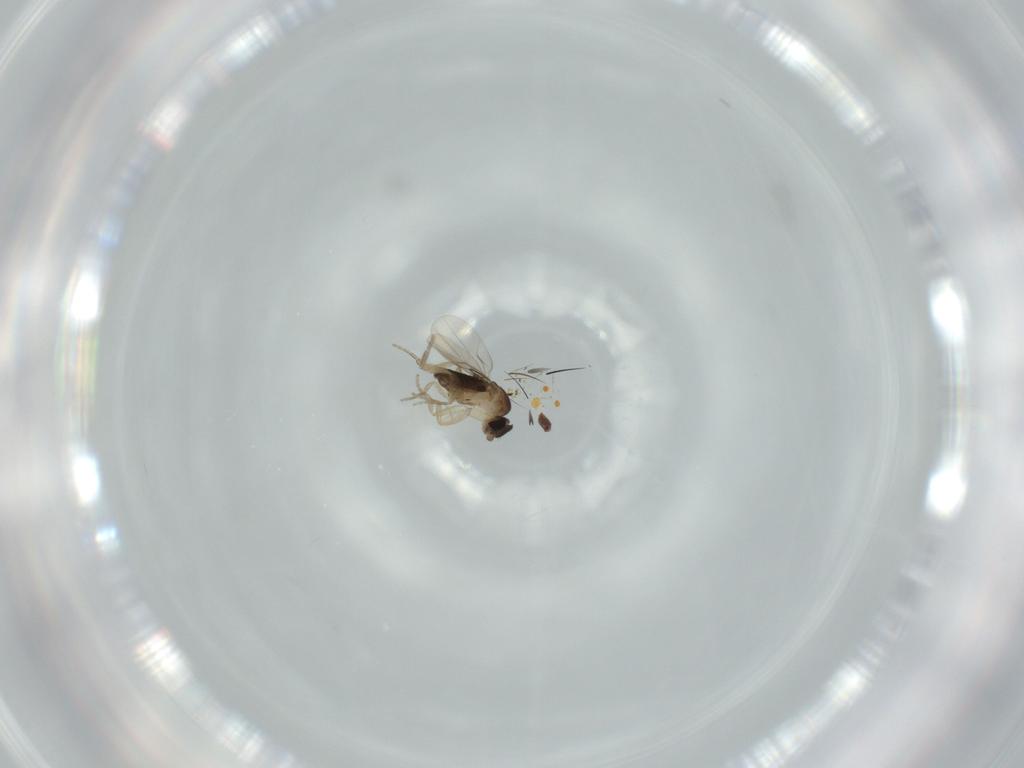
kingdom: Animalia
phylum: Arthropoda
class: Insecta
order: Diptera
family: Phoridae
